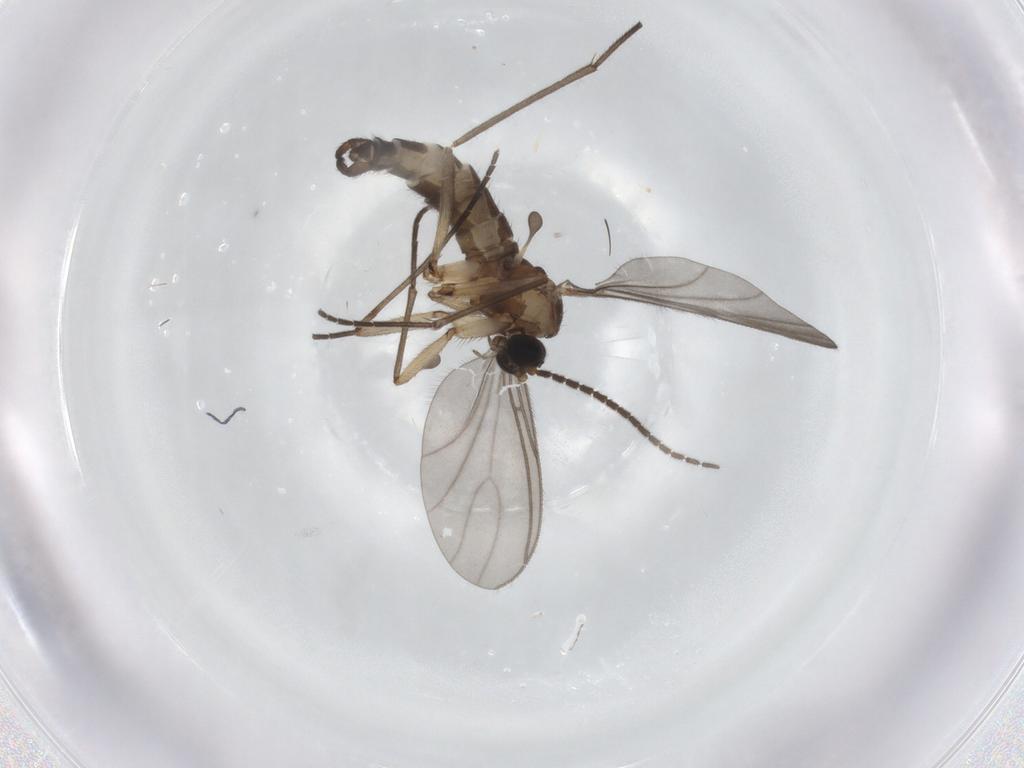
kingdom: Animalia
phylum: Arthropoda
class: Insecta
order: Diptera
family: Sciaridae
